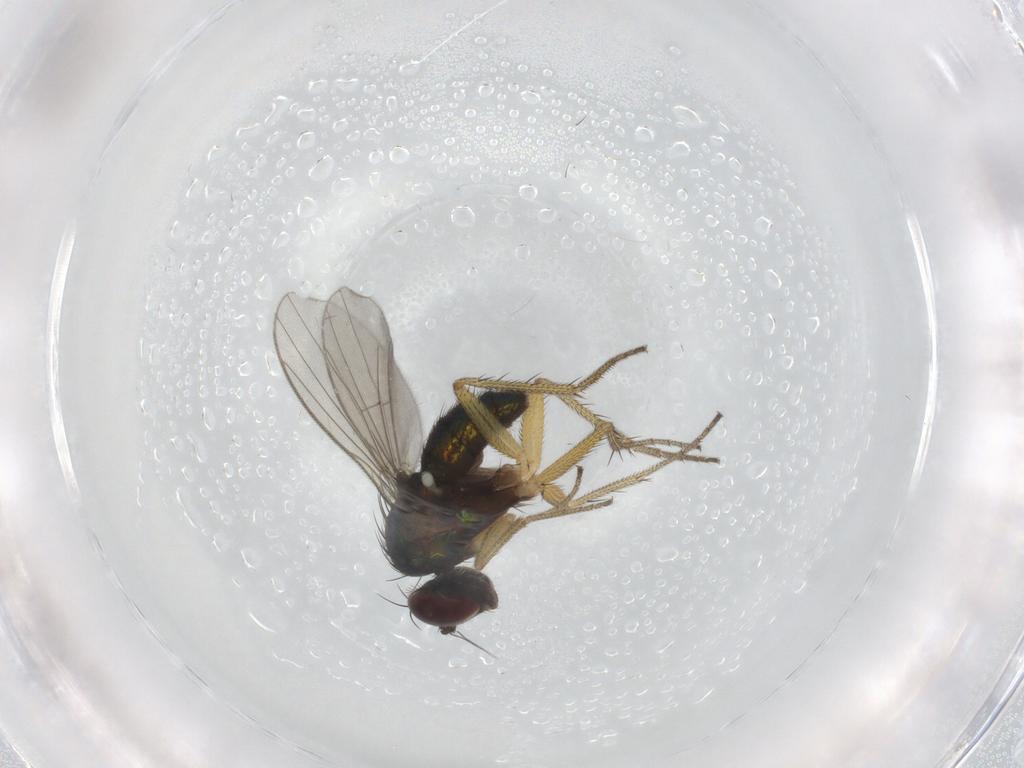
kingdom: Animalia
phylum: Arthropoda
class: Insecta
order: Diptera
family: Dolichopodidae
